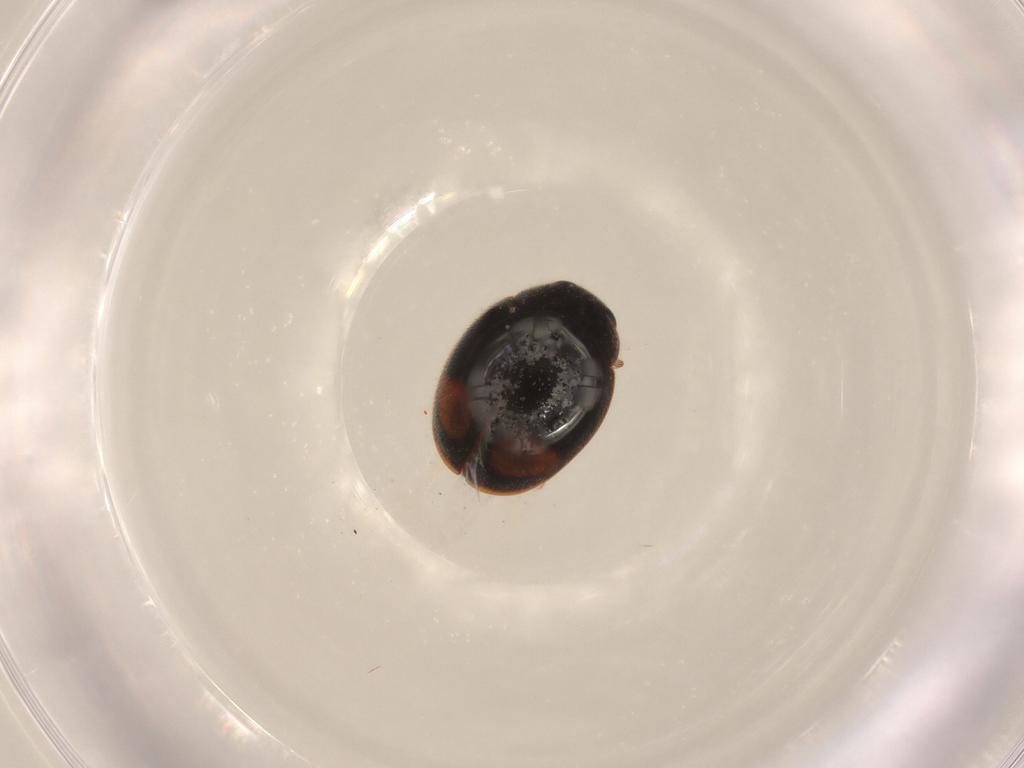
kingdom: Animalia
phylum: Arthropoda
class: Insecta
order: Coleoptera
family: Coccinellidae
